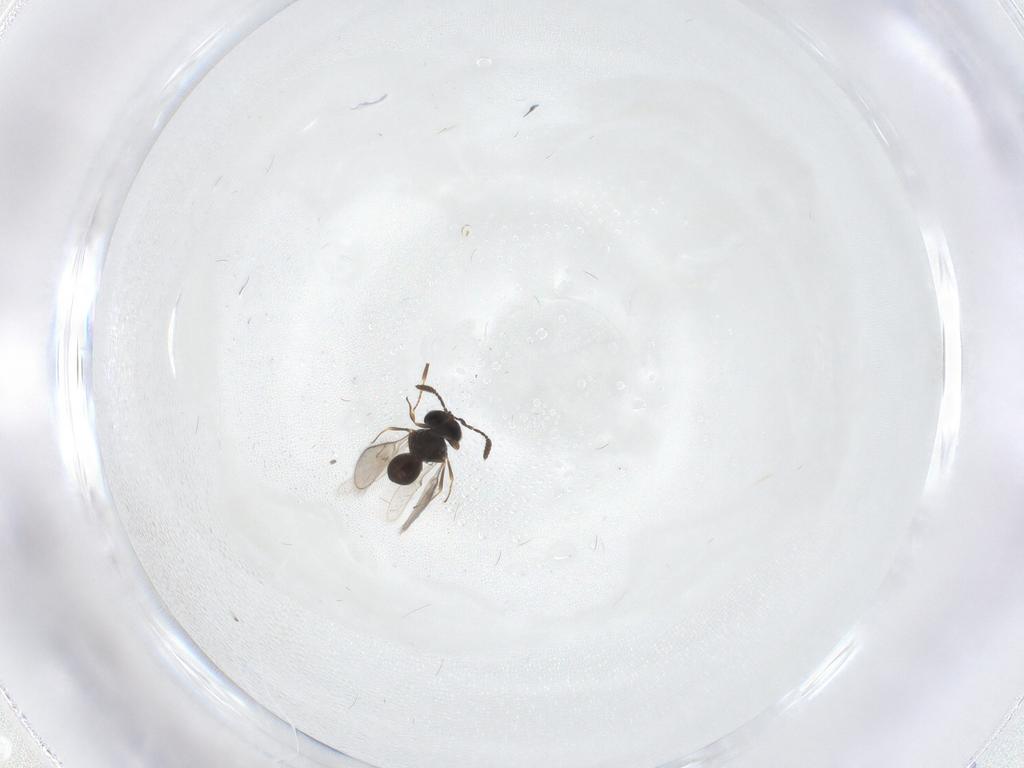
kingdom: Animalia
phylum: Arthropoda
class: Insecta
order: Hymenoptera
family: Scelionidae
